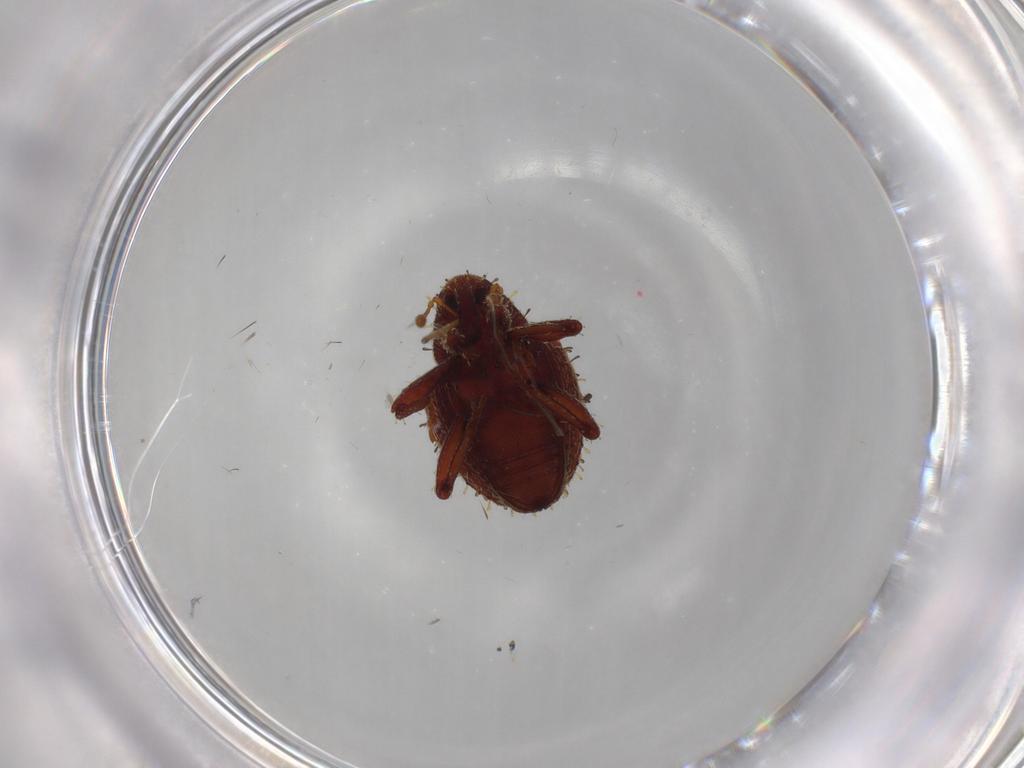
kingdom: Animalia
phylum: Arthropoda
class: Insecta
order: Coleoptera
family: Curculionidae
